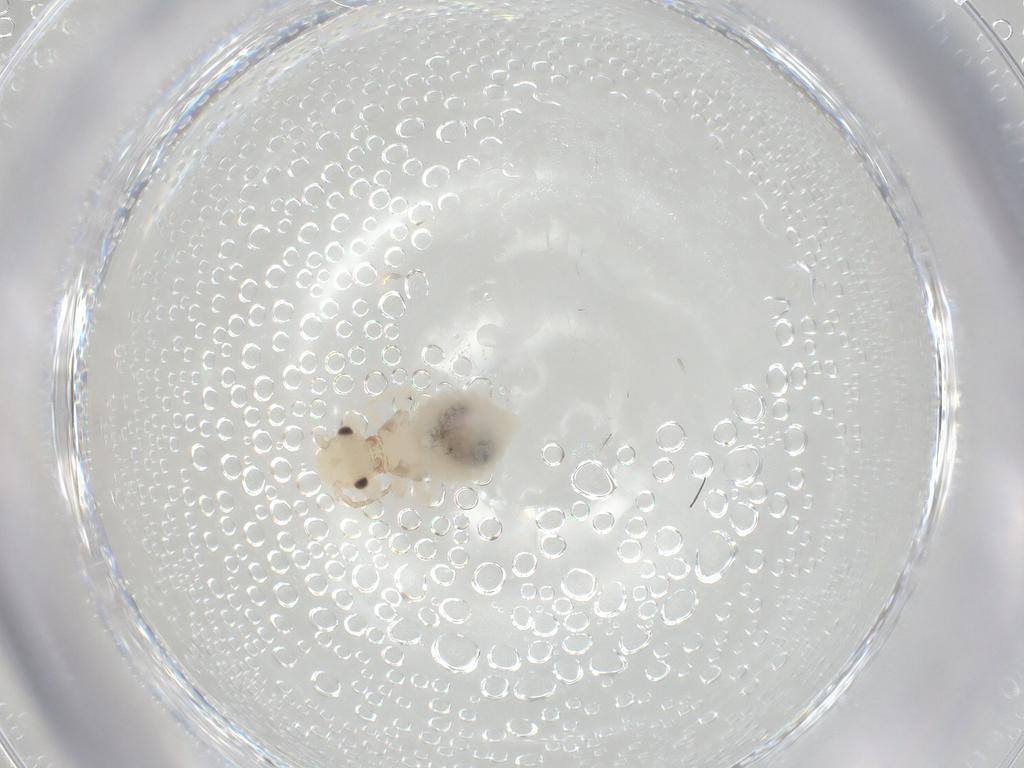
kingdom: Animalia
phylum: Arthropoda
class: Insecta
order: Psocodea
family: Amphipsocidae
